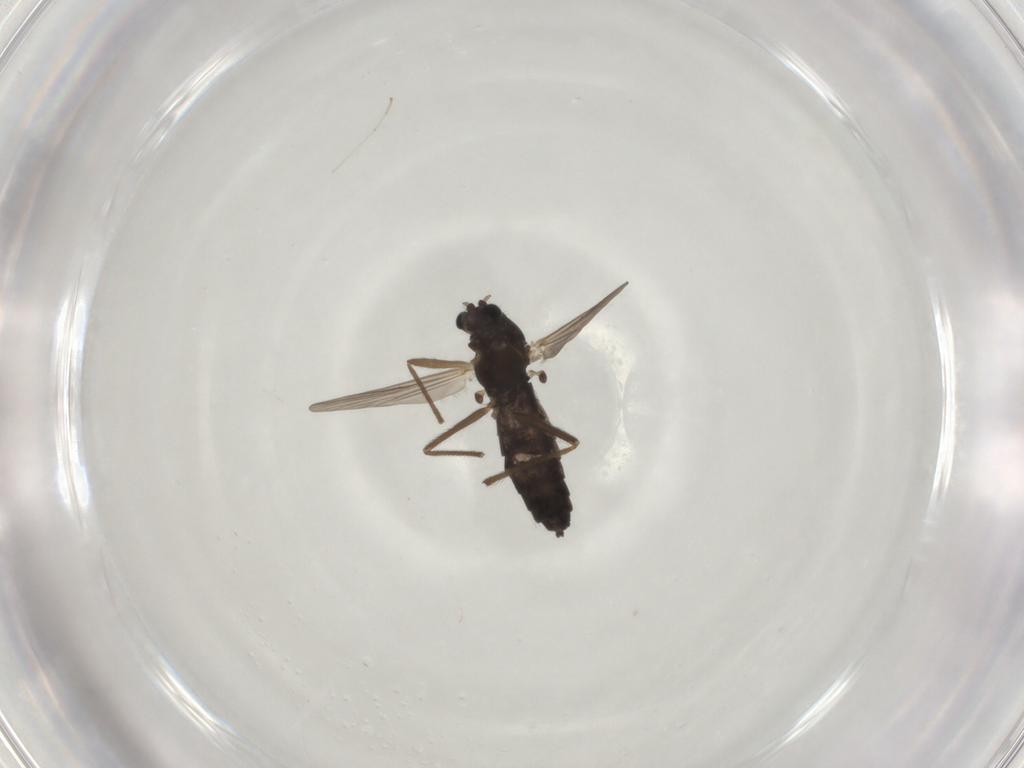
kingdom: Animalia
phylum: Arthropoda
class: Insecta
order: Diptera
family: Chironomidae
